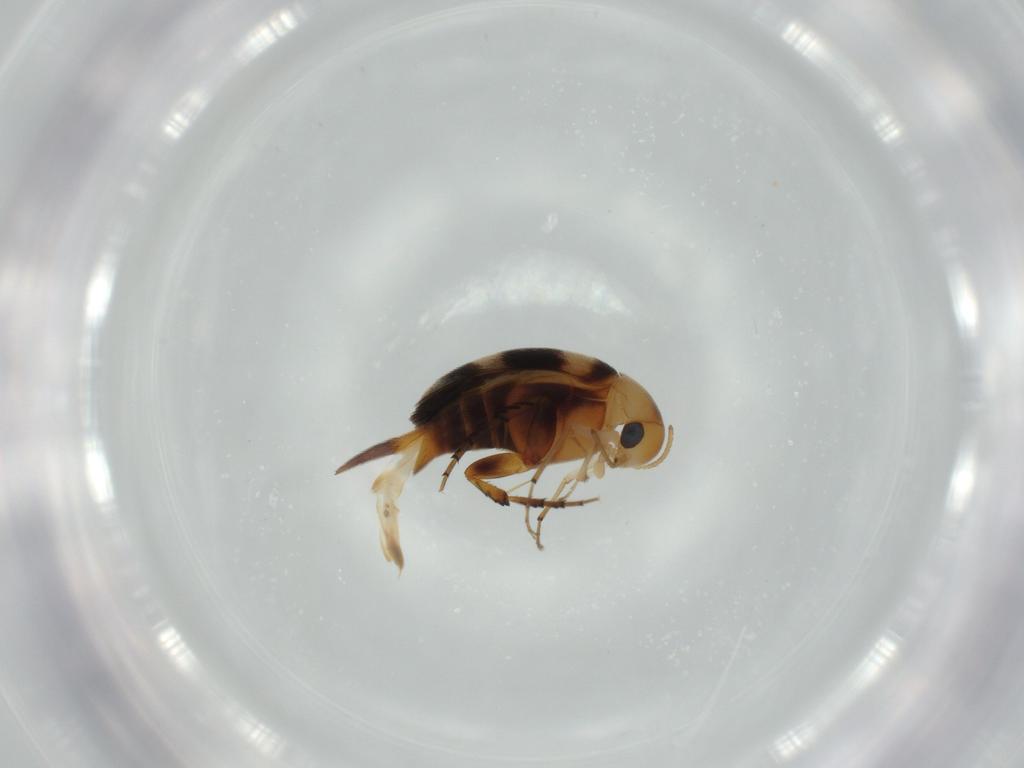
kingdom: Animalia
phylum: Arthropoda
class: Insecta
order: Coleoptera
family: Mordellidae
